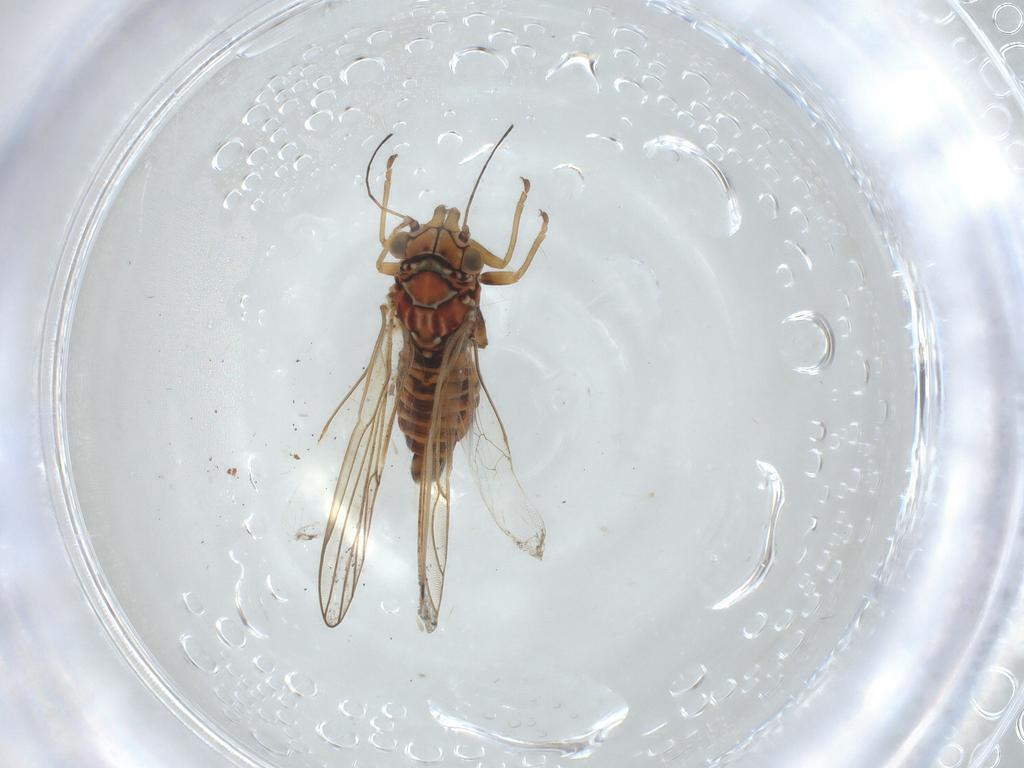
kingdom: Animalia
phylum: Arthropoda
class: Insecta
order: Hemiptera
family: Psyllidae
